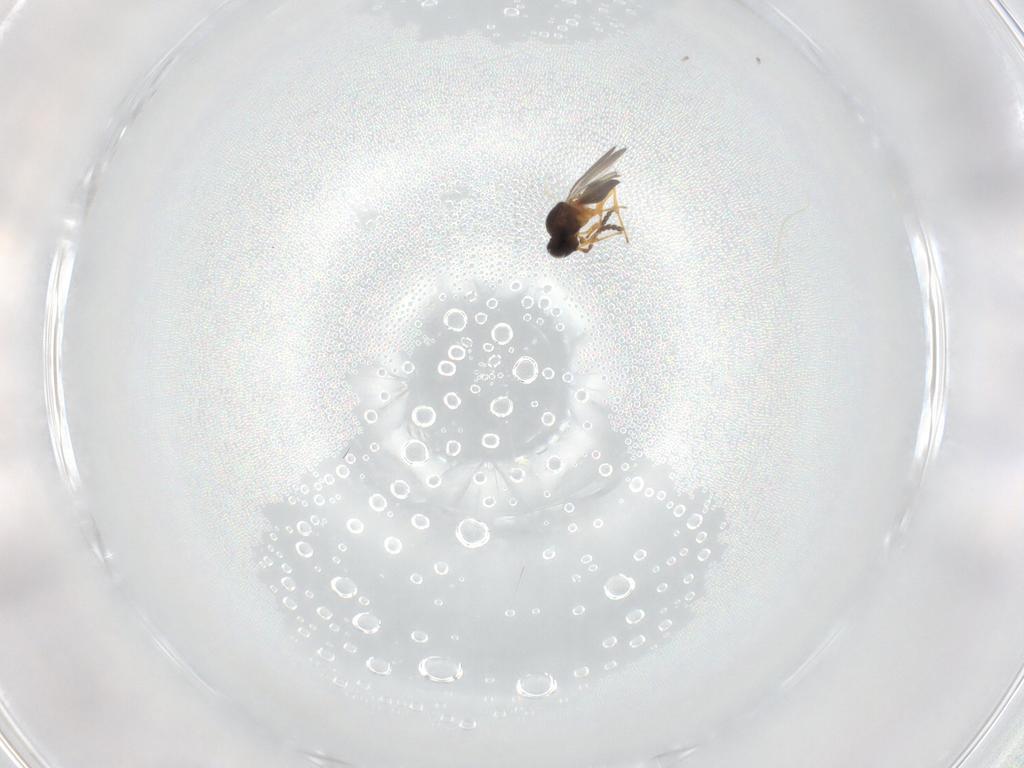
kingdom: Animalia
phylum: Arthropoda
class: Insecta
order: Hymenoptera
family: Platygastridae
